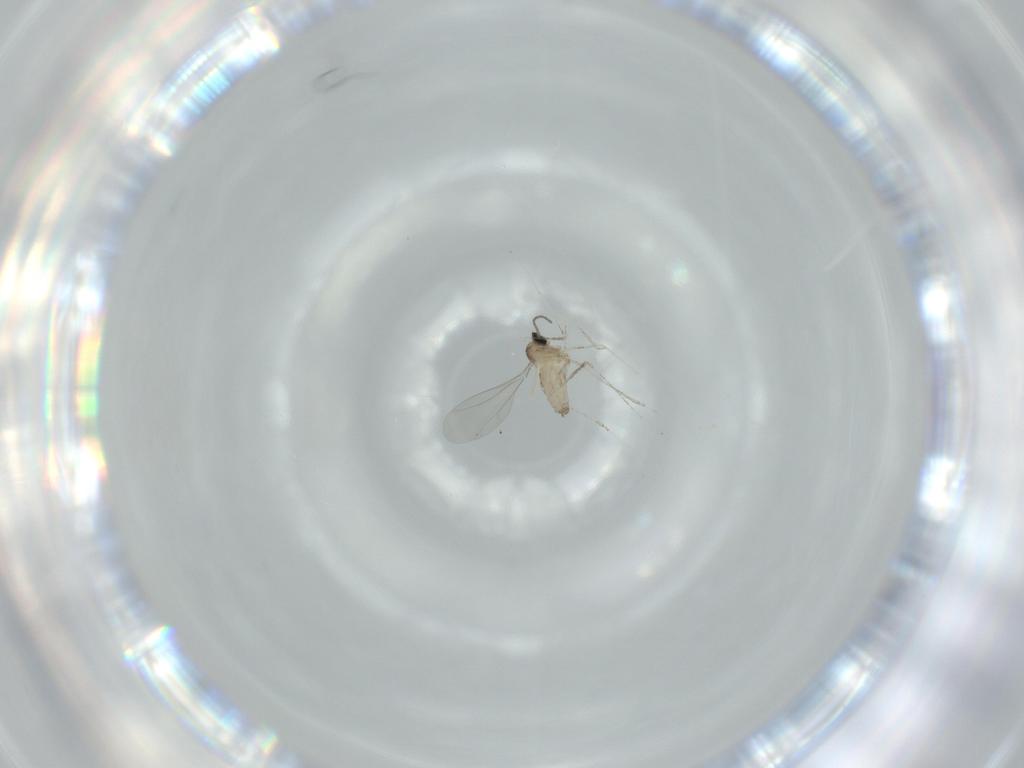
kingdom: Animalia
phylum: Arthropoda
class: Insecta
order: Diptera
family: Cecidomyiidae
